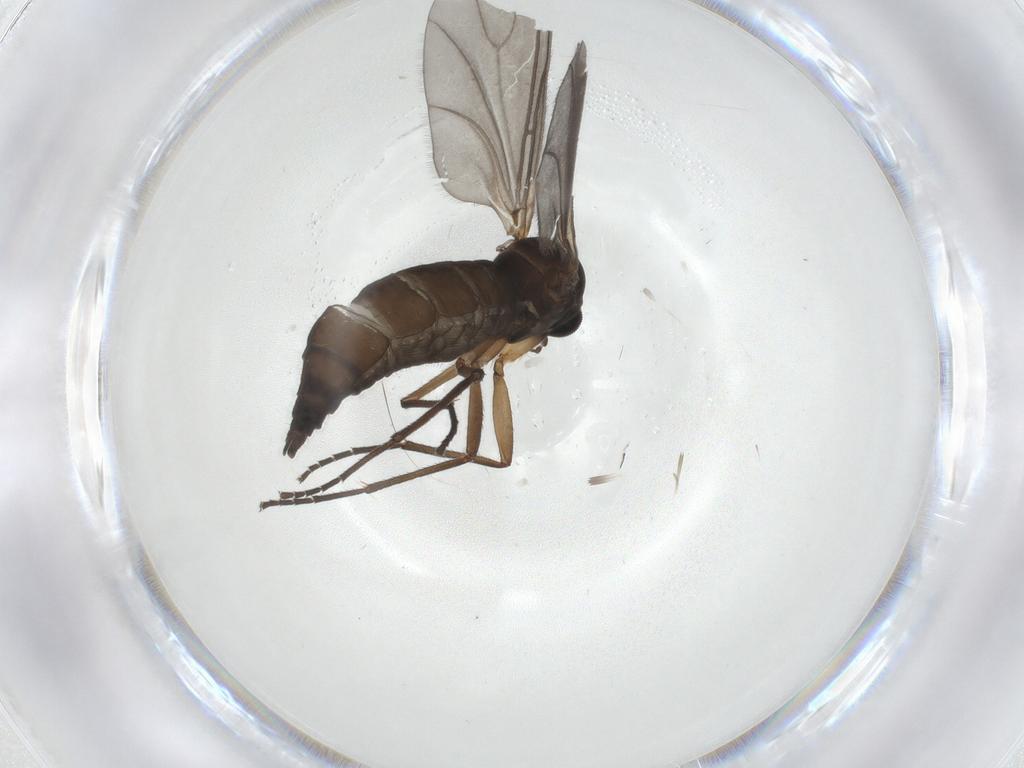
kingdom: Animalia
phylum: Arthropoda
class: Insecta
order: Diptera
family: Sciaridae
